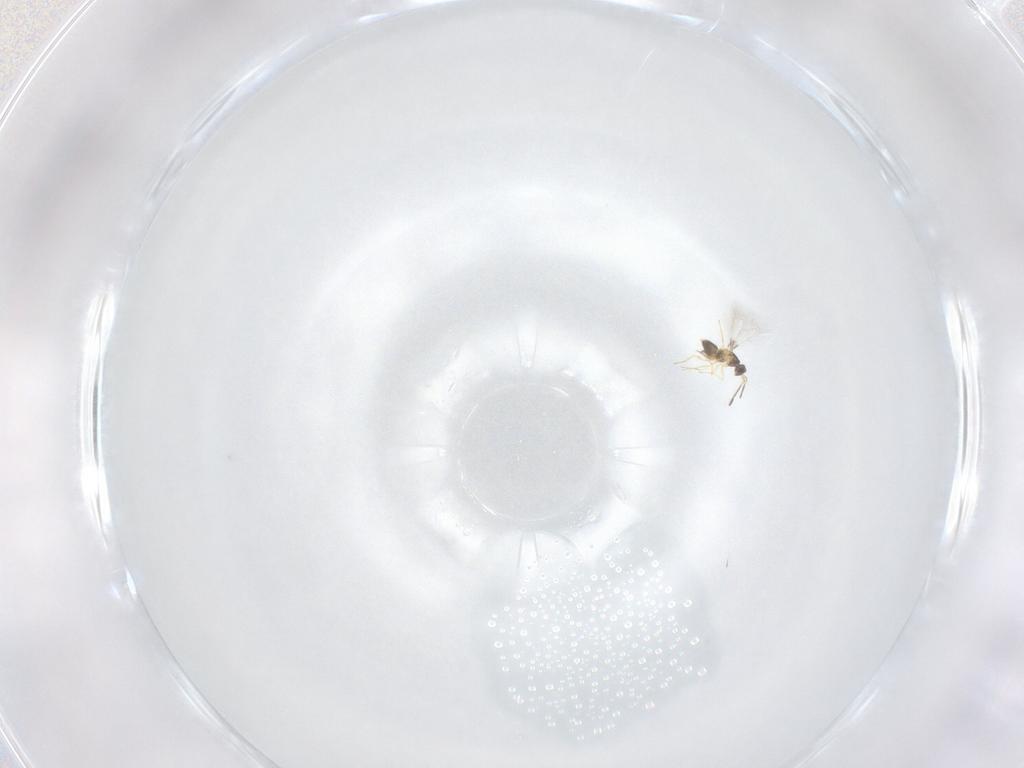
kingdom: Animalia
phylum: Arthropoda
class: Insecta
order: Hymenoptera
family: Mymaridae
